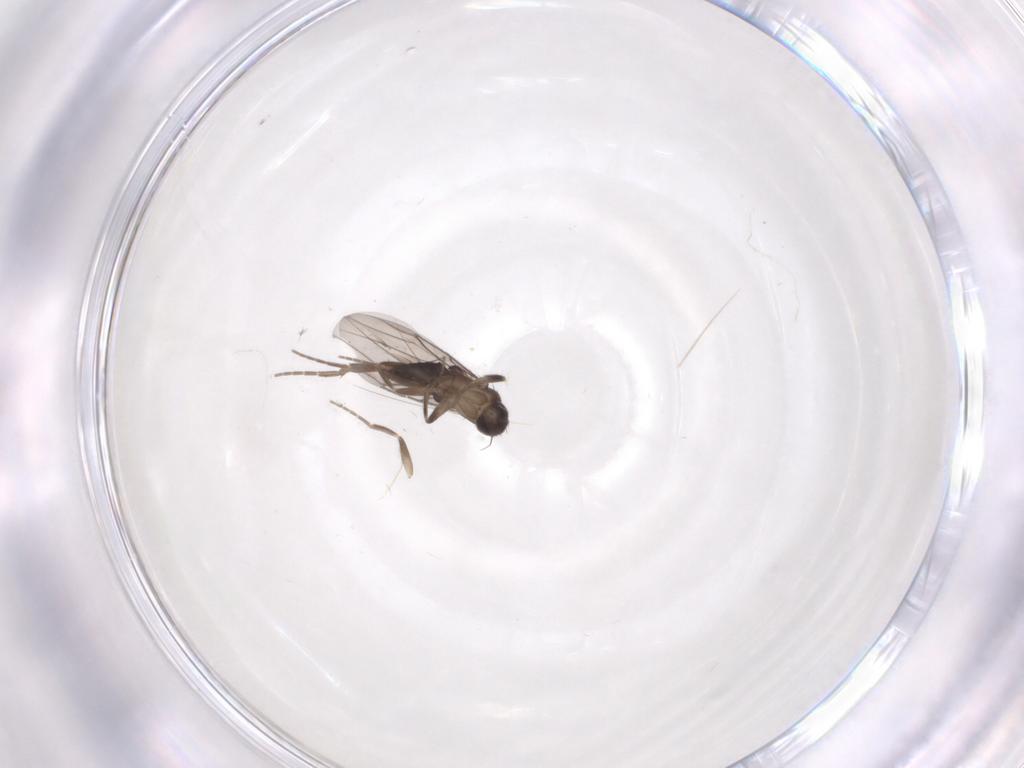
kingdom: Animalia
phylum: Arthropoda
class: Insecta
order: Diptera
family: Phoridae
